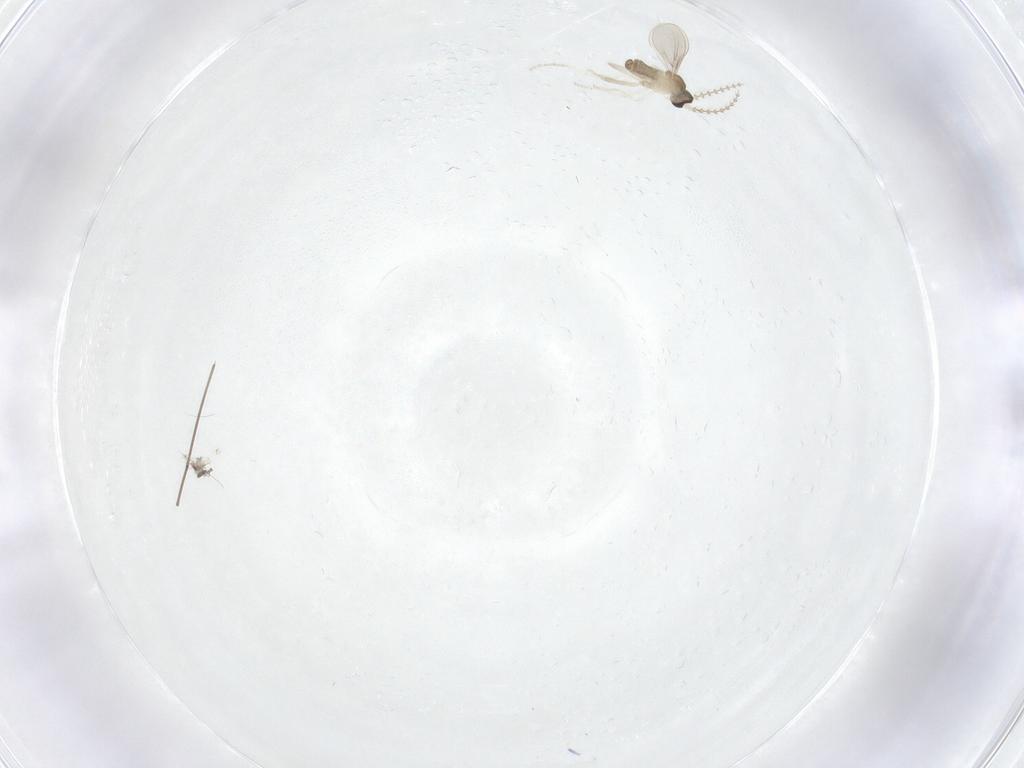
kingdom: Animalia
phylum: Arthropoda
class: Insecta
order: Diptera
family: Cecidomyiidae
